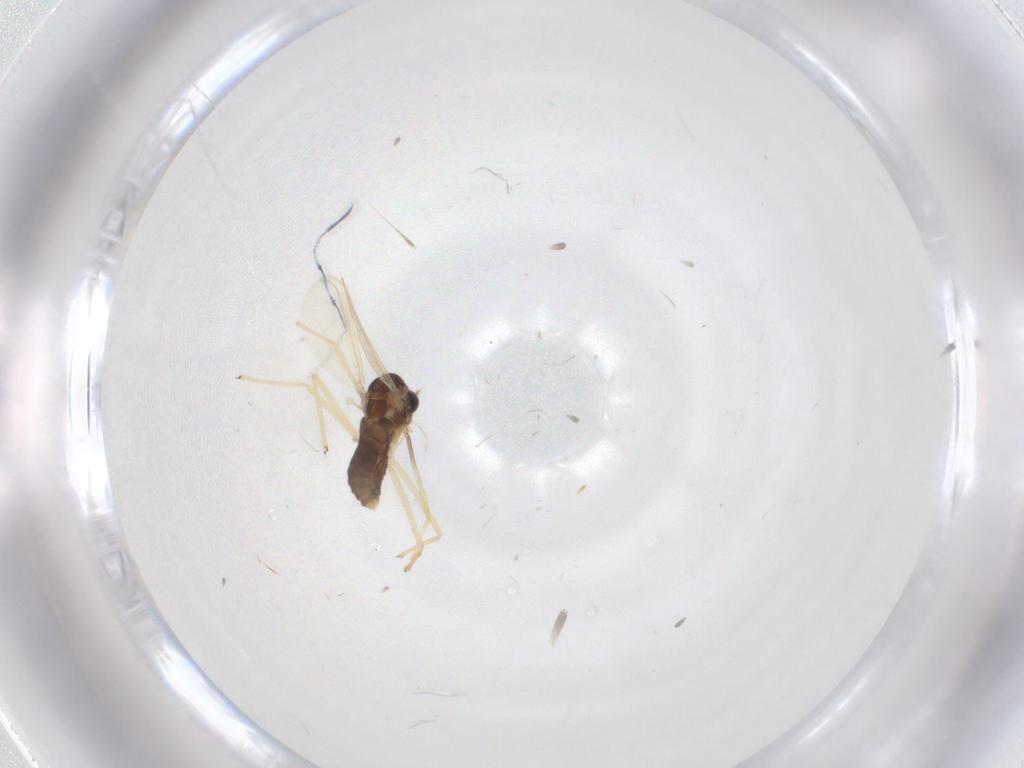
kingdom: Animalia
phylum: Arthropoda
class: Insecta
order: Diptera
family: Chironomidae
